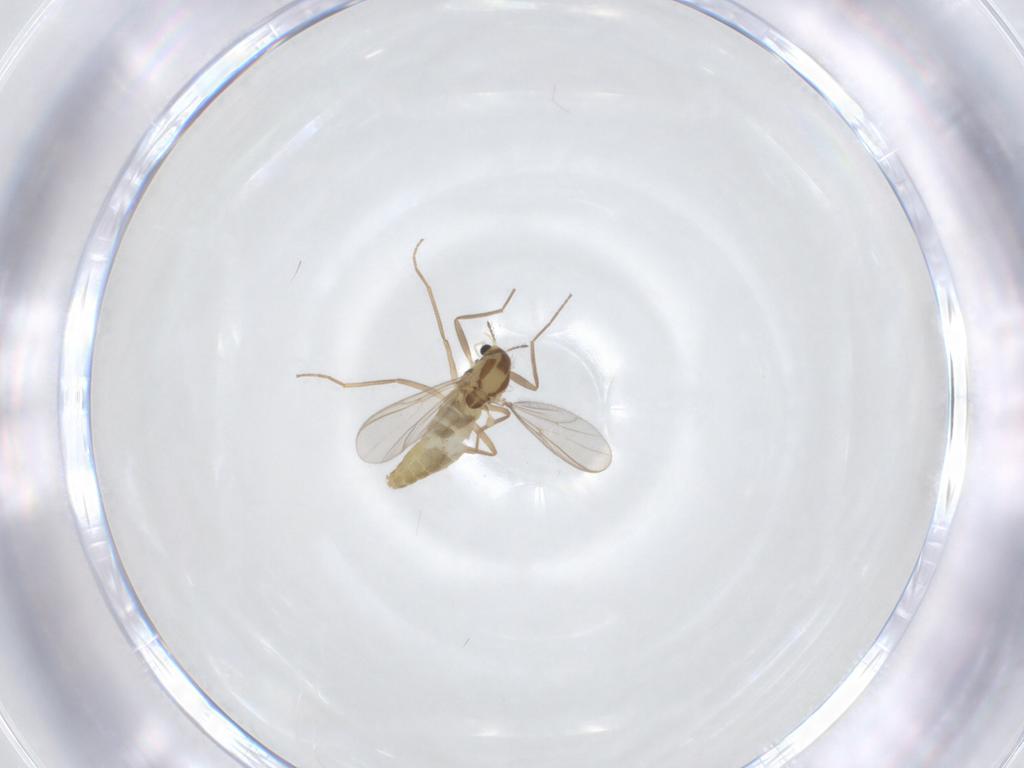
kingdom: Animalia
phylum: Arthropoda
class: Insecta
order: Diptera
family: Chironomidae
